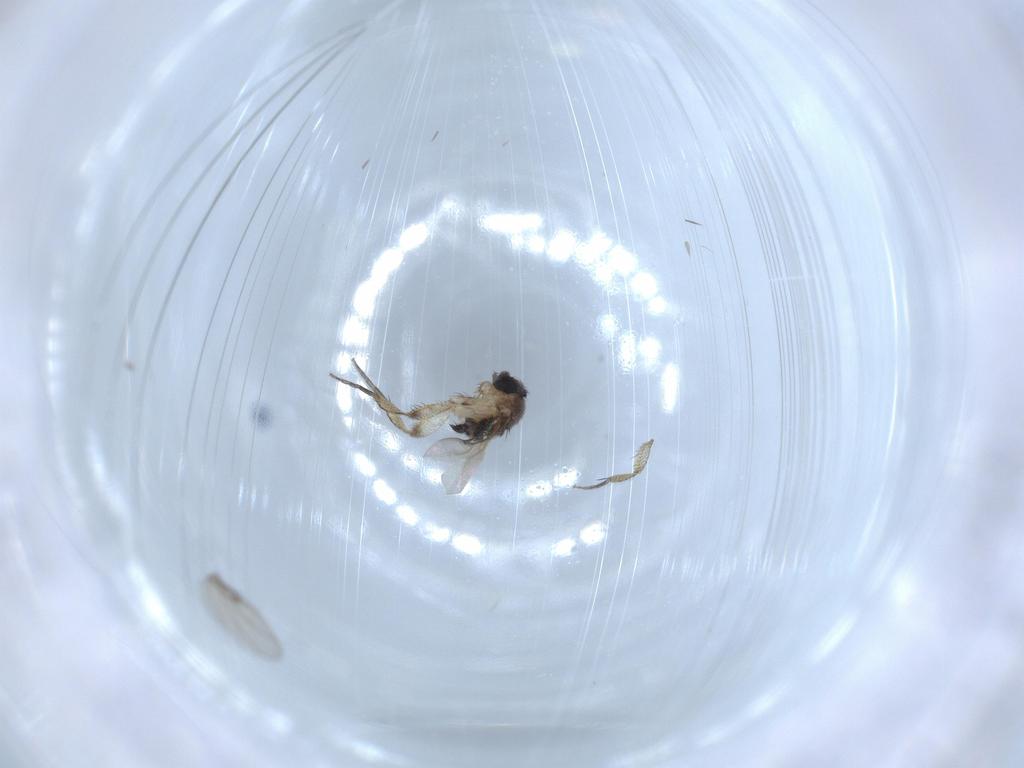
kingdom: Animalia
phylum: Arthropoda
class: Insecta
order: Diptera
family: Phoridae
